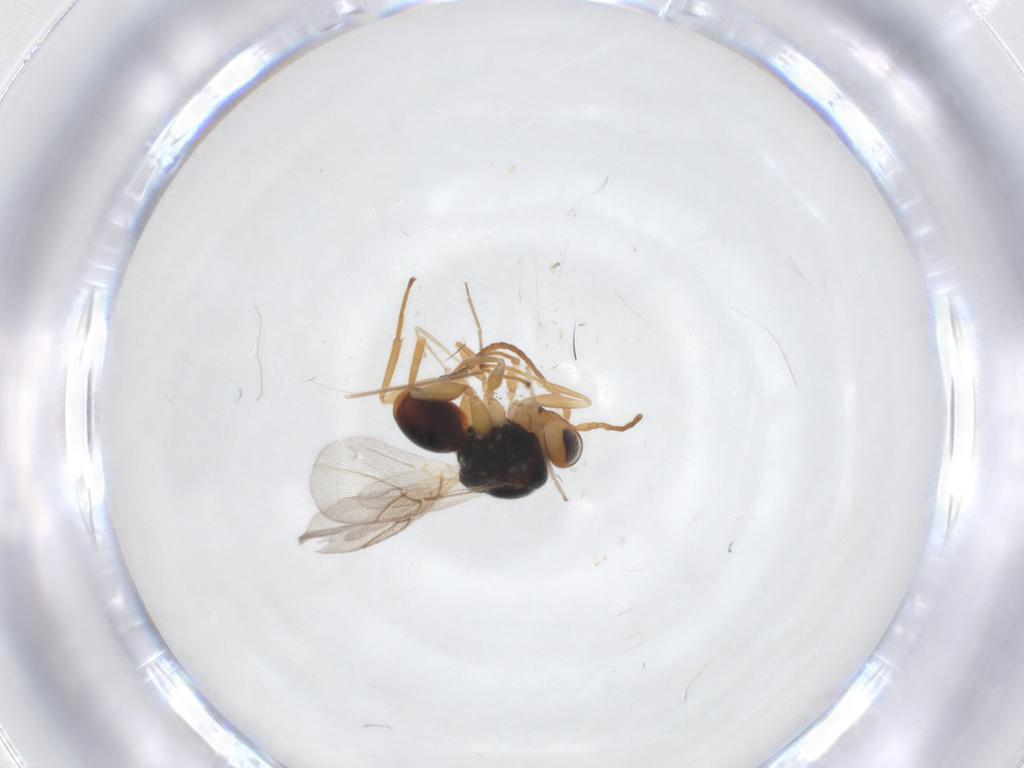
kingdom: Animalia
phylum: Arthropoda
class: Insecta
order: Hymenoptera
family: Cynipidae
